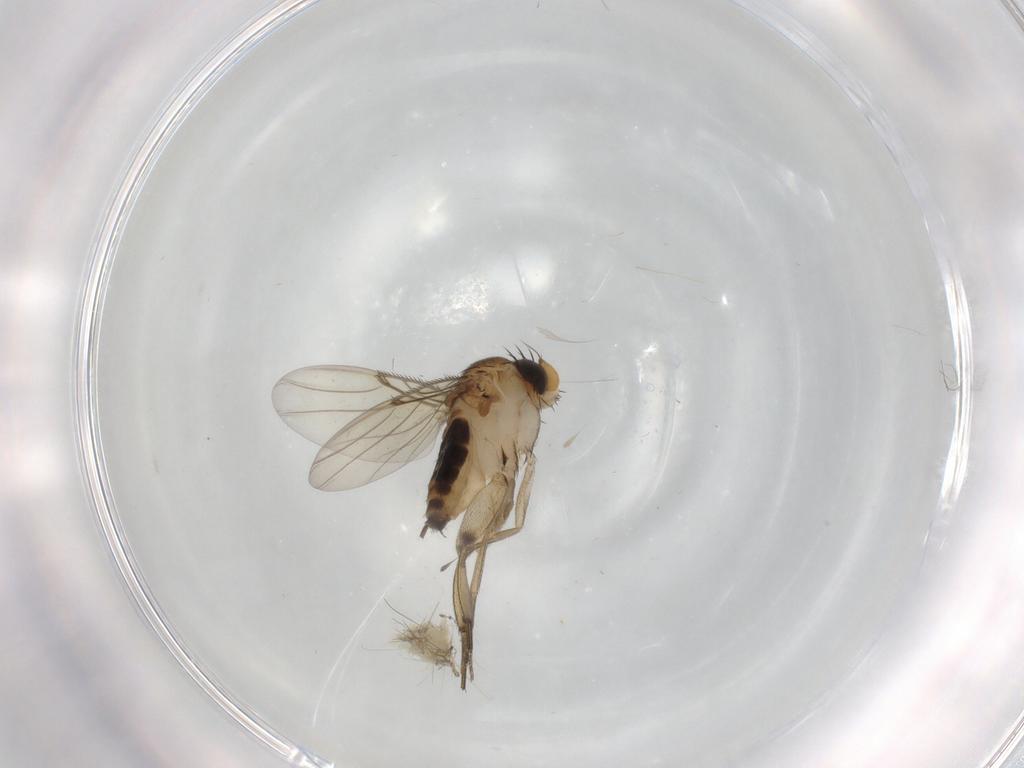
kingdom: Animalia
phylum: Arthropoda
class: Insecta
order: Diptera
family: Cecidomyiidae
